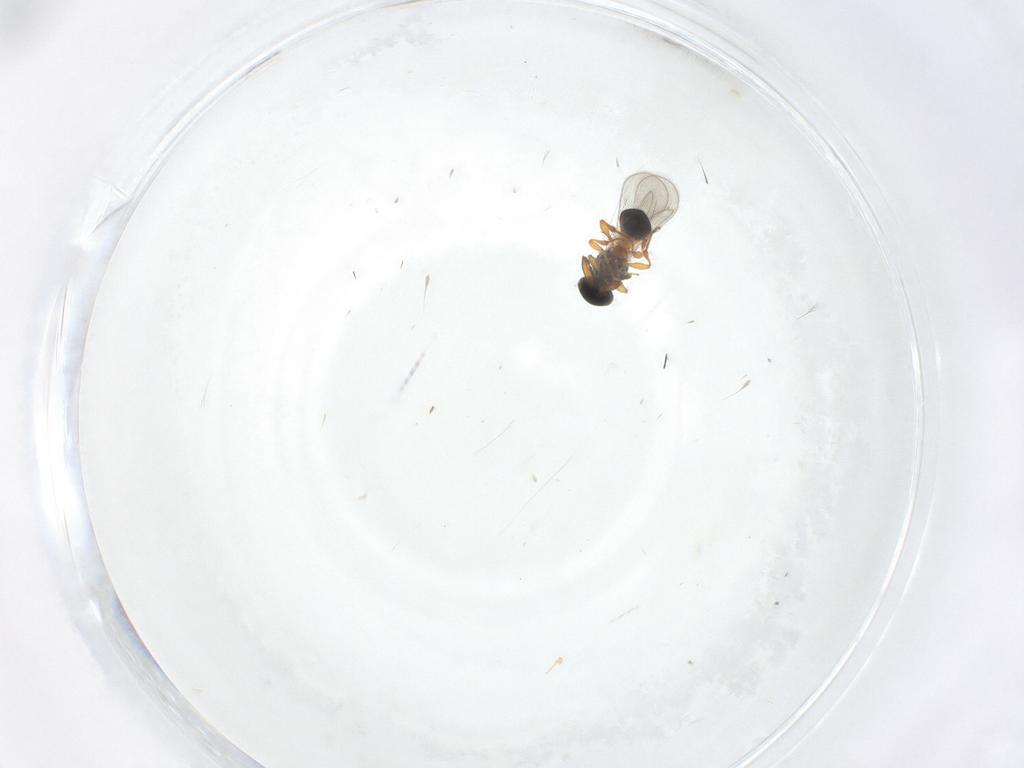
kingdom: Animalia
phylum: Arthropoda
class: Insecta
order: Hymenoptera
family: Platygastridae
